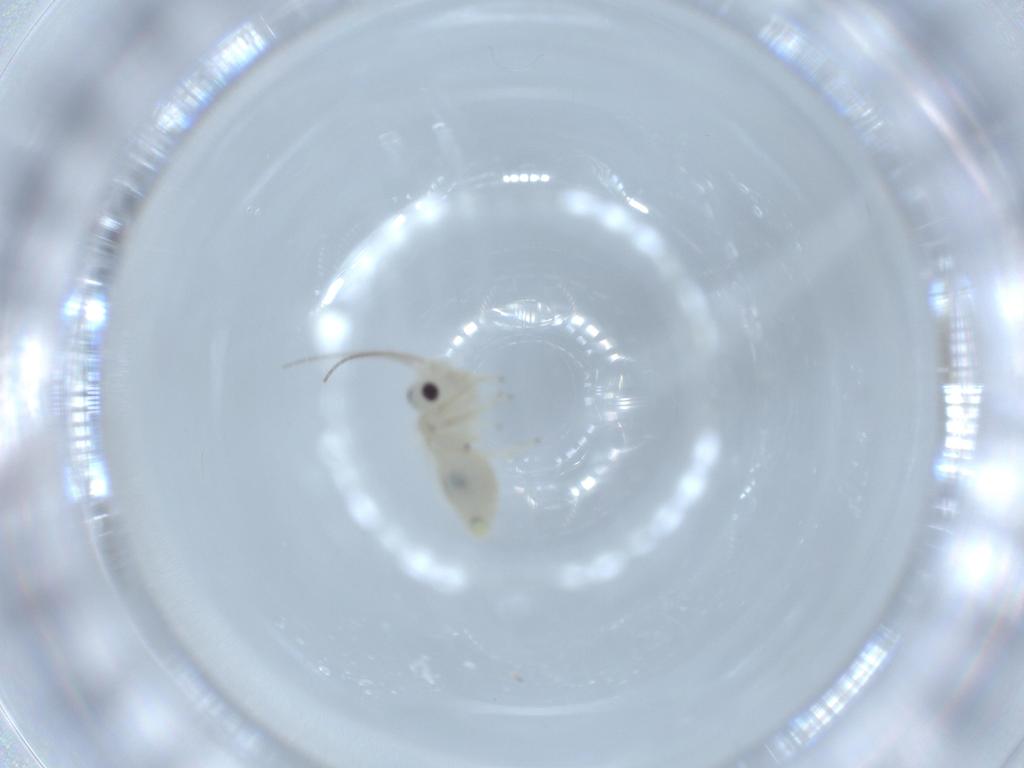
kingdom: Animalia
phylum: Arthropoda
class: Insecta
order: Psocodea
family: Caeciliusidae
